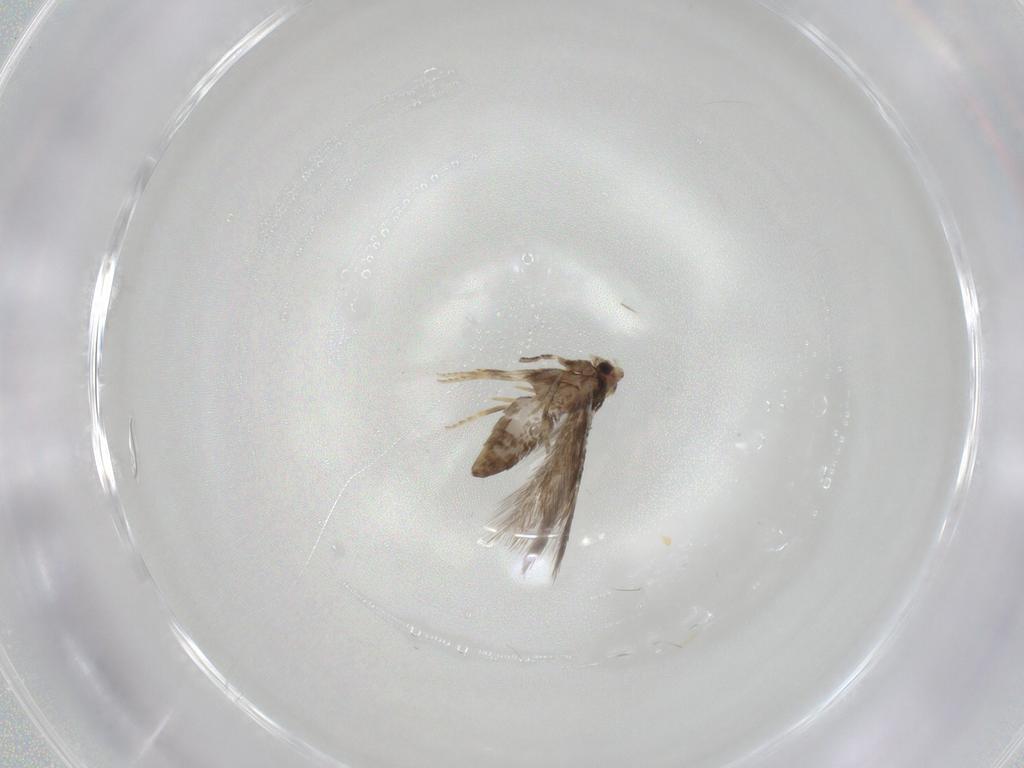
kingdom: Animalia
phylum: Arthropoda
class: Insecta
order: Lepidoptera
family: Nepticulidae
